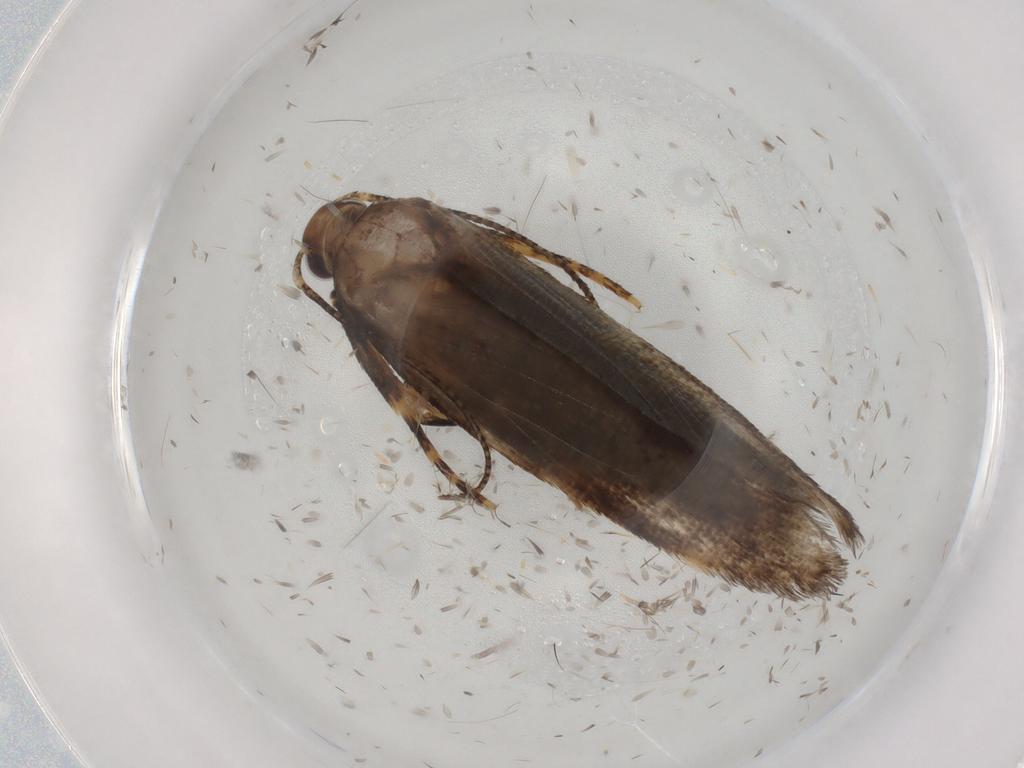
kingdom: Animalia
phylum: Arthropoda
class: Insecta
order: Lepidoptera
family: Gelechiidae
